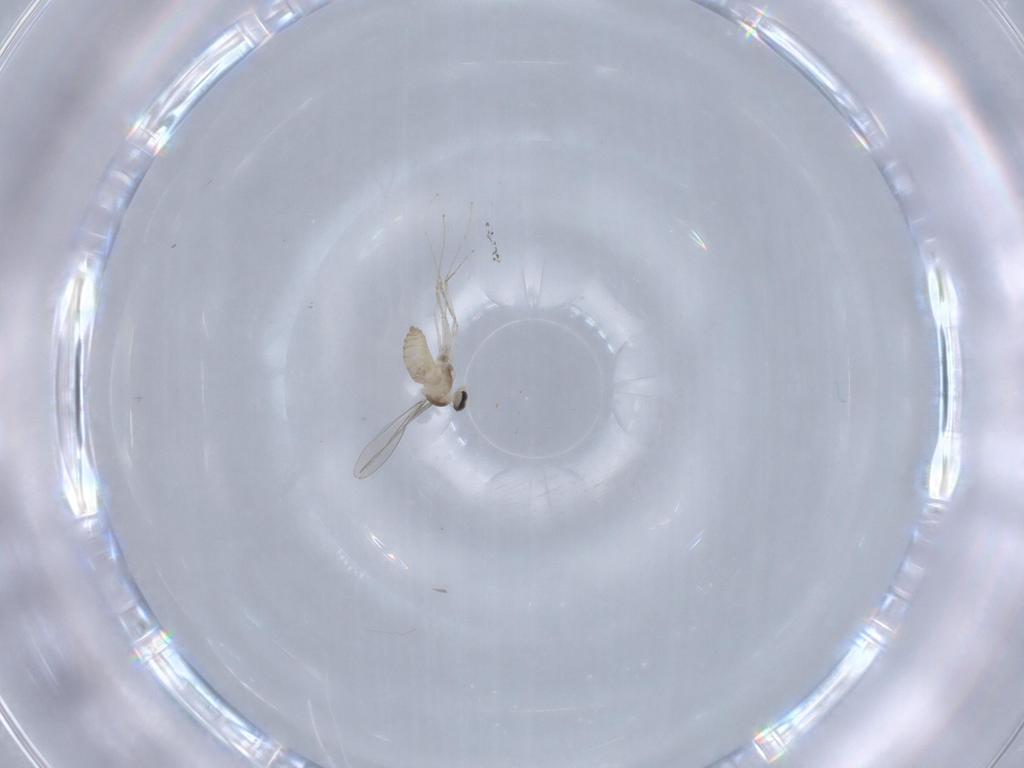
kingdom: Animalia
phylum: Arthropoda
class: Insecta
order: Diptera
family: Cecidomyiidae
